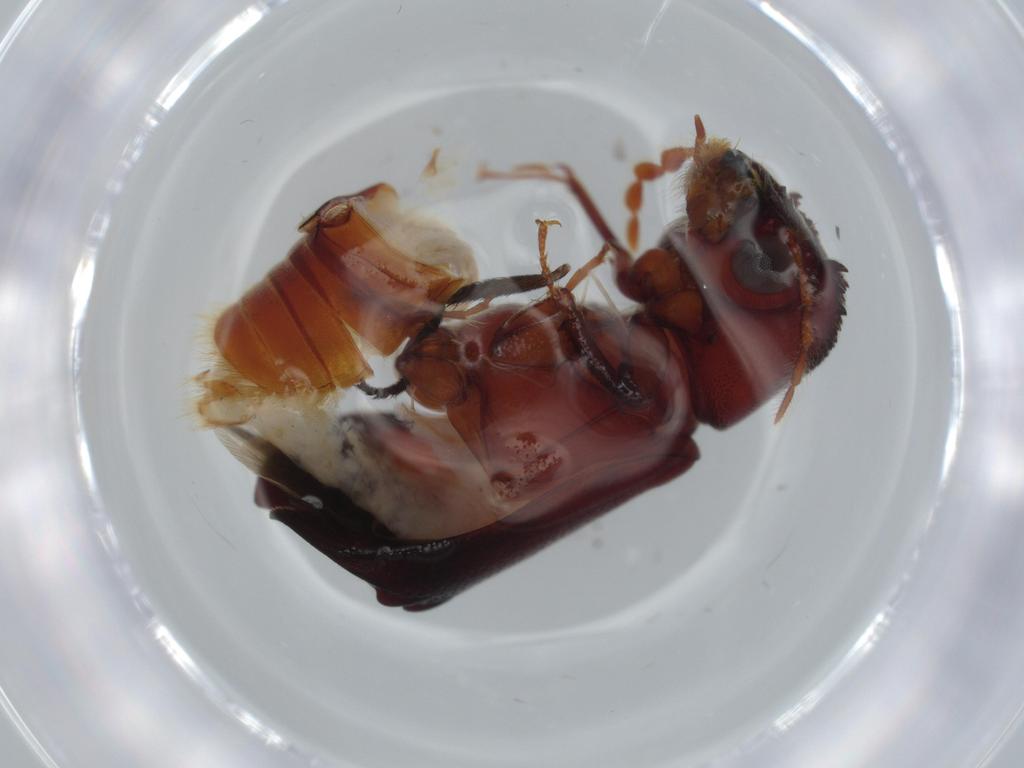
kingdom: Animalia
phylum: Arthropoda
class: Insecta
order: Coleoptera
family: Bostrichidae
